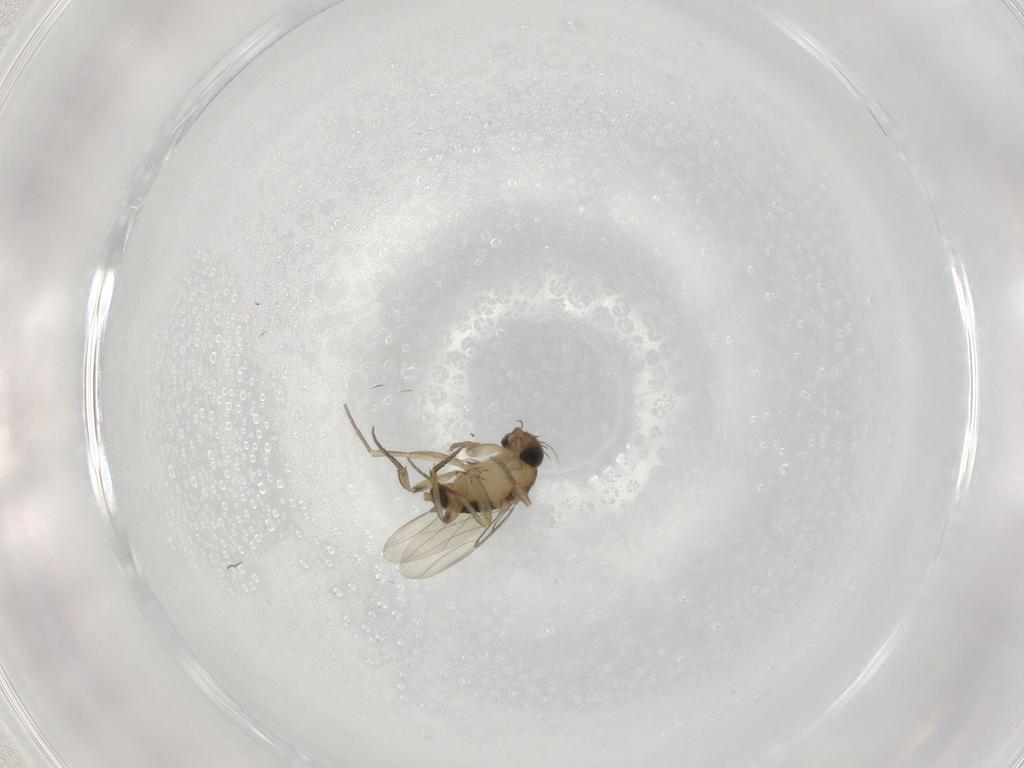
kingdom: Animalia
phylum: Arthropoda
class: Insecta
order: Diptera
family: Phoridae
